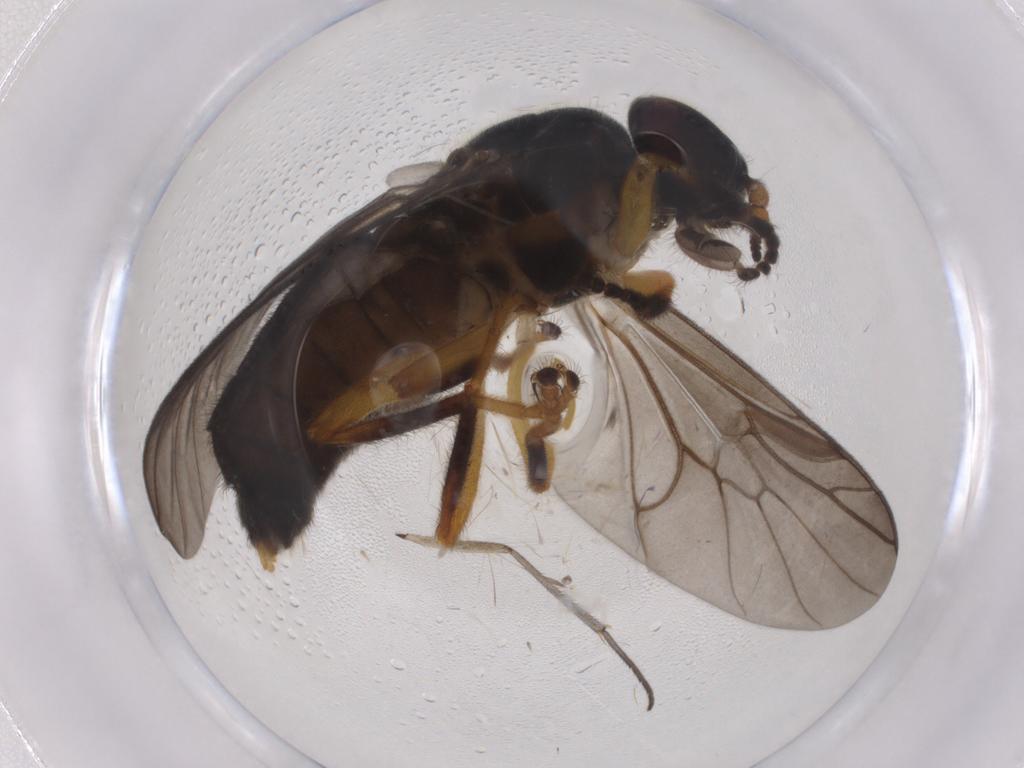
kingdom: Animalia
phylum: Arthropoda
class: Insecta
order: Diptera
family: Stratiomyidae
